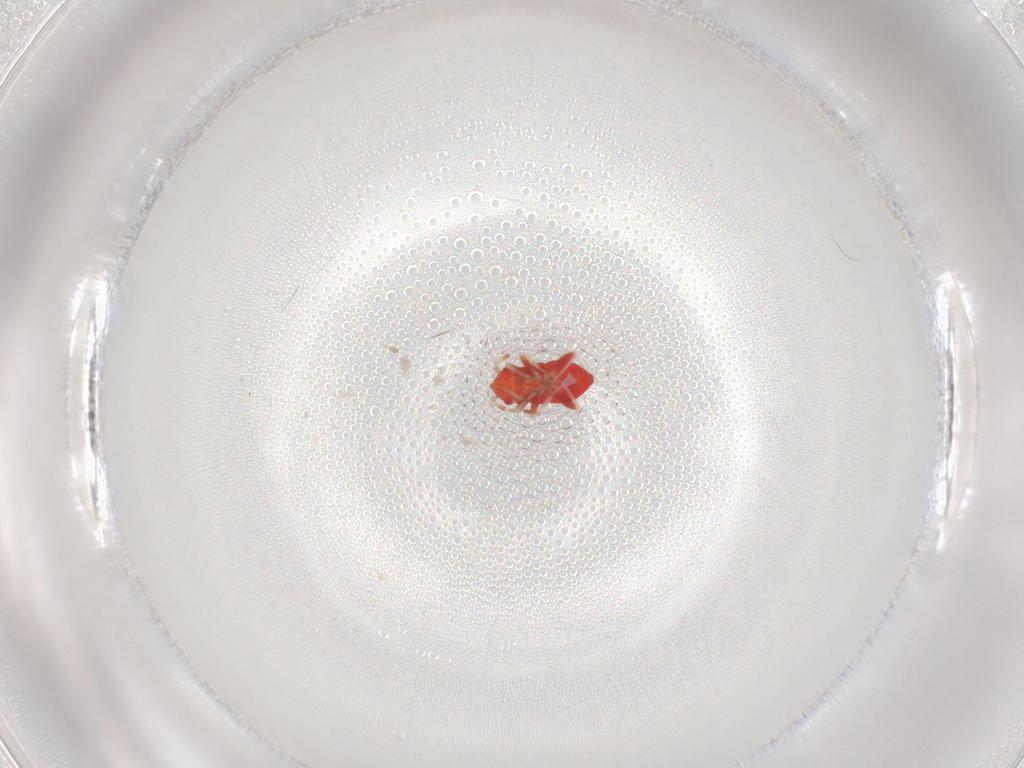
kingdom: Animalia
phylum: Arthropoda
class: Insecta
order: Hemiptera
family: Miridae
